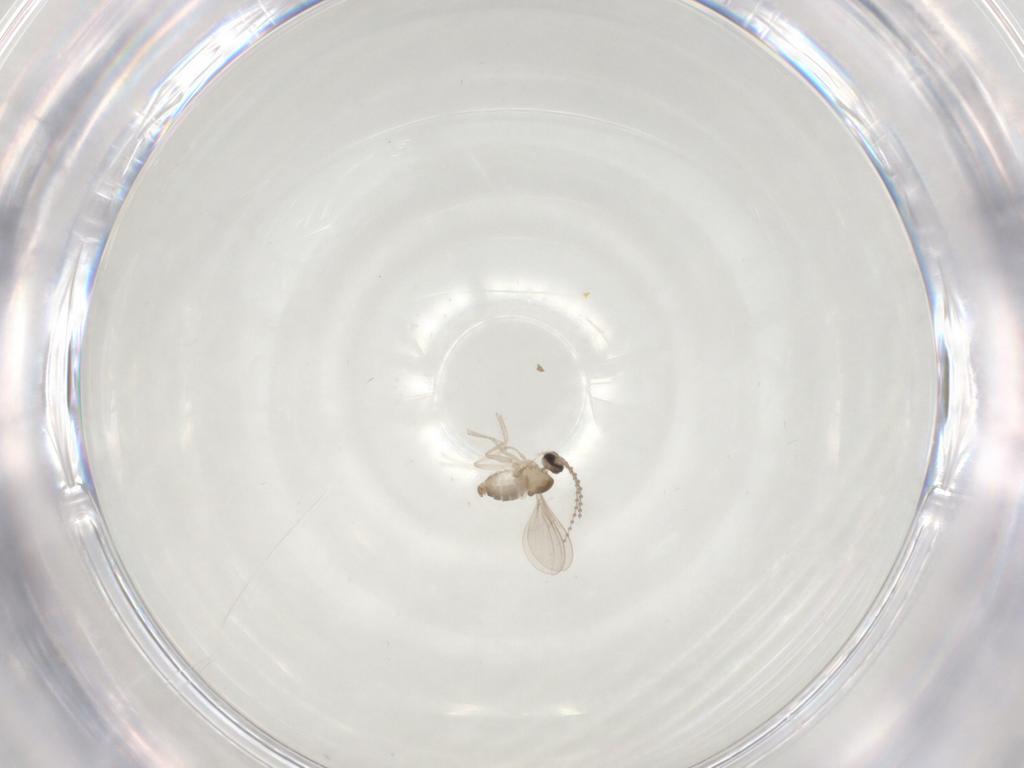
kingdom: Animalia
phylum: Arthropoda
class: Insecta
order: Diptera
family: Cecidomyiidae
